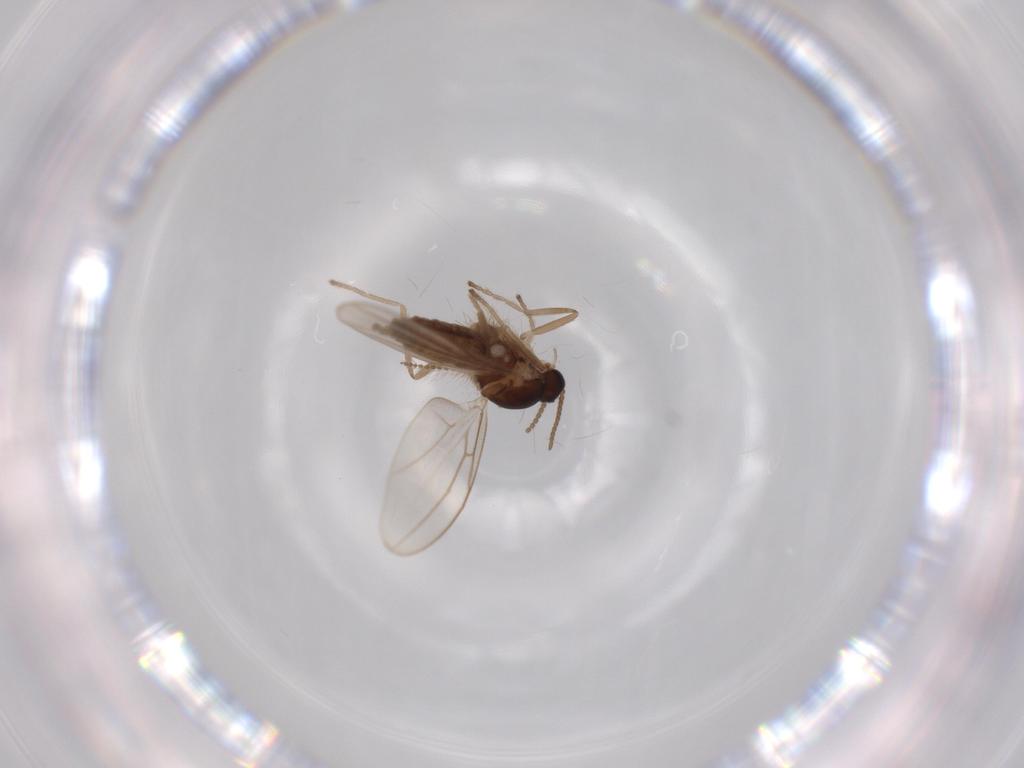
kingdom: Animalia
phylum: Arthropoda
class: Insecta
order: Diptera
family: Cecidomyiidae
